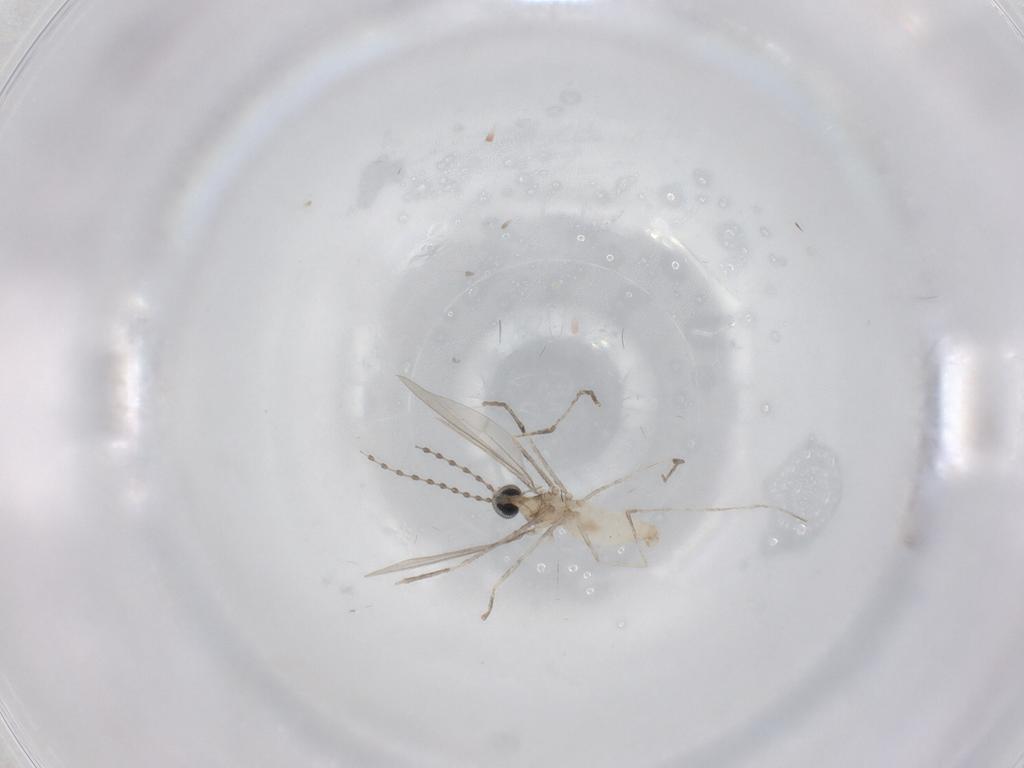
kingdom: Animalia
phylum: Arthropoda
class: Insecta
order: Diptera
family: Cecidomyiidae
